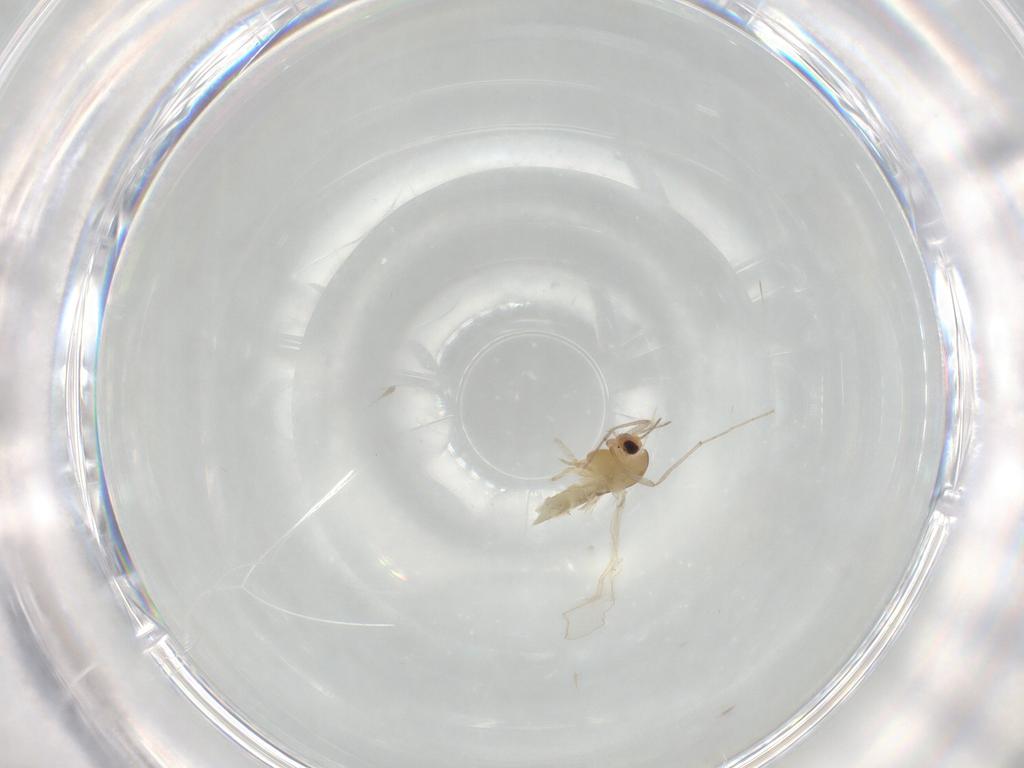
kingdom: Animalia
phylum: Arthropoda
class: Insecta
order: Diptera
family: Chironomidae
